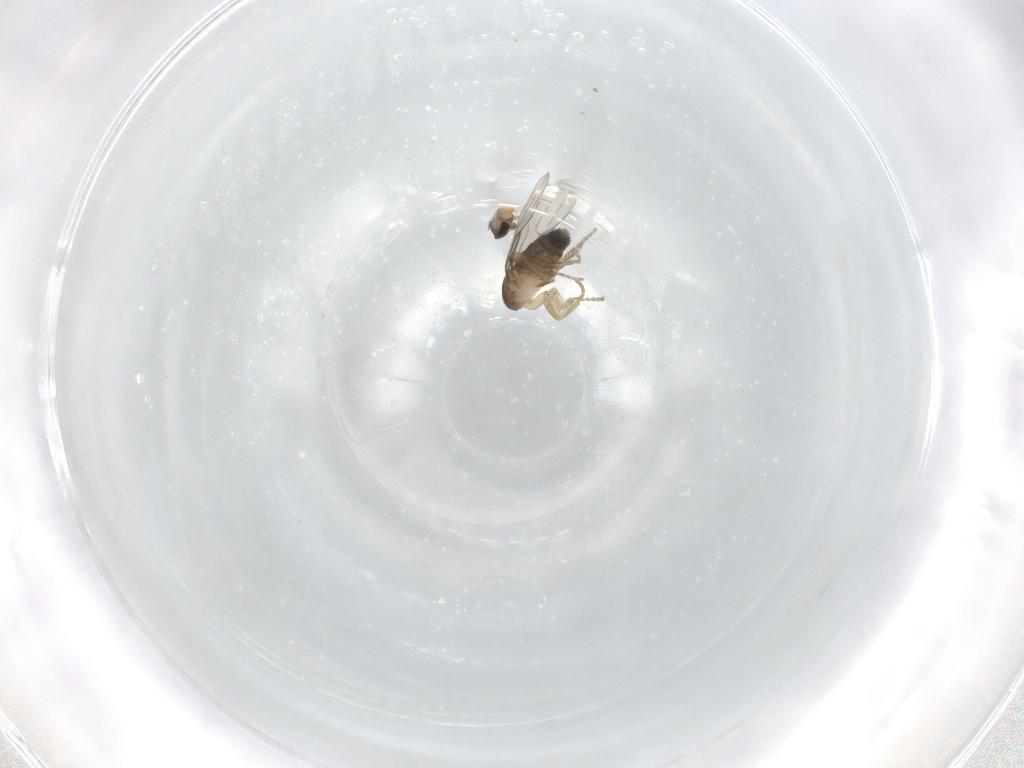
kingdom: Animalia
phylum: Arthropoda
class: Insecta
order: Diptera
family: Phoridae
